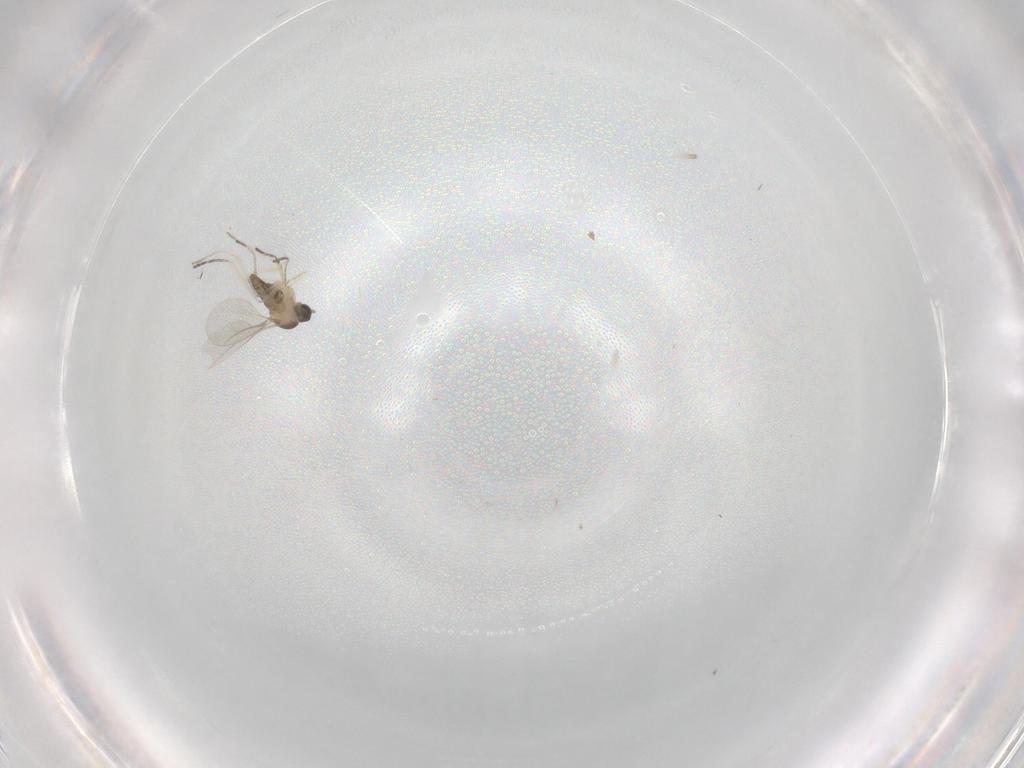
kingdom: Animalia
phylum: Arthropoda
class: Insecta
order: Diptera
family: Cecidomyiidae
